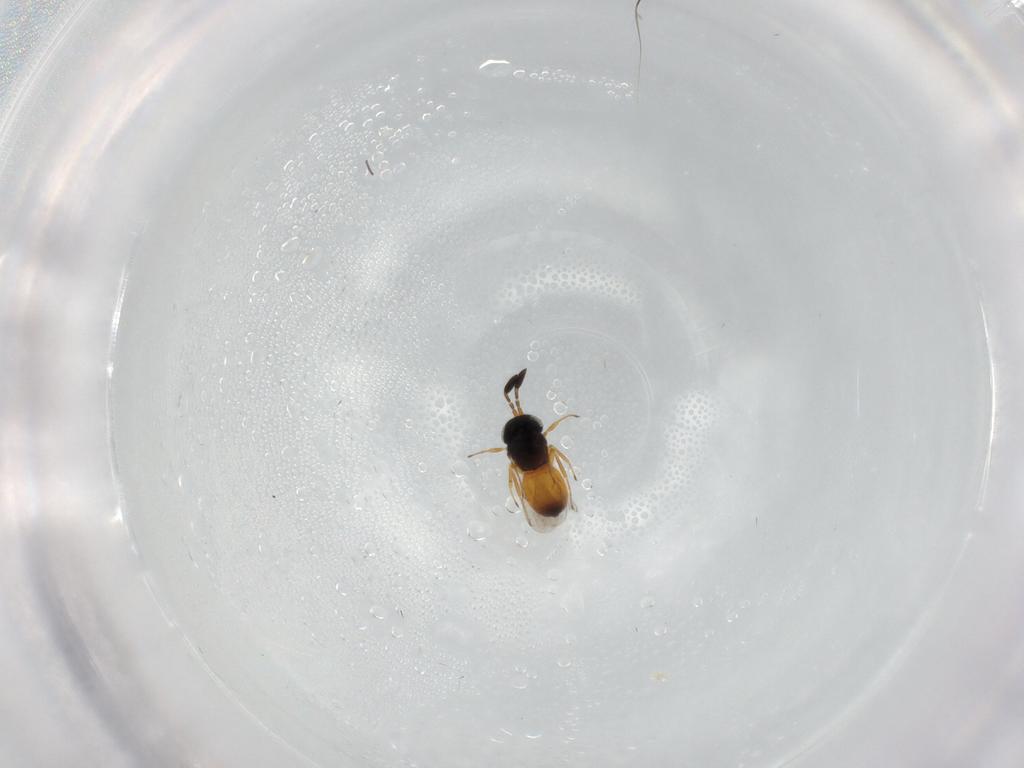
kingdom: Animalia
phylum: Arthropoda
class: Insecta
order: Hymenoptera
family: Scelionidae
